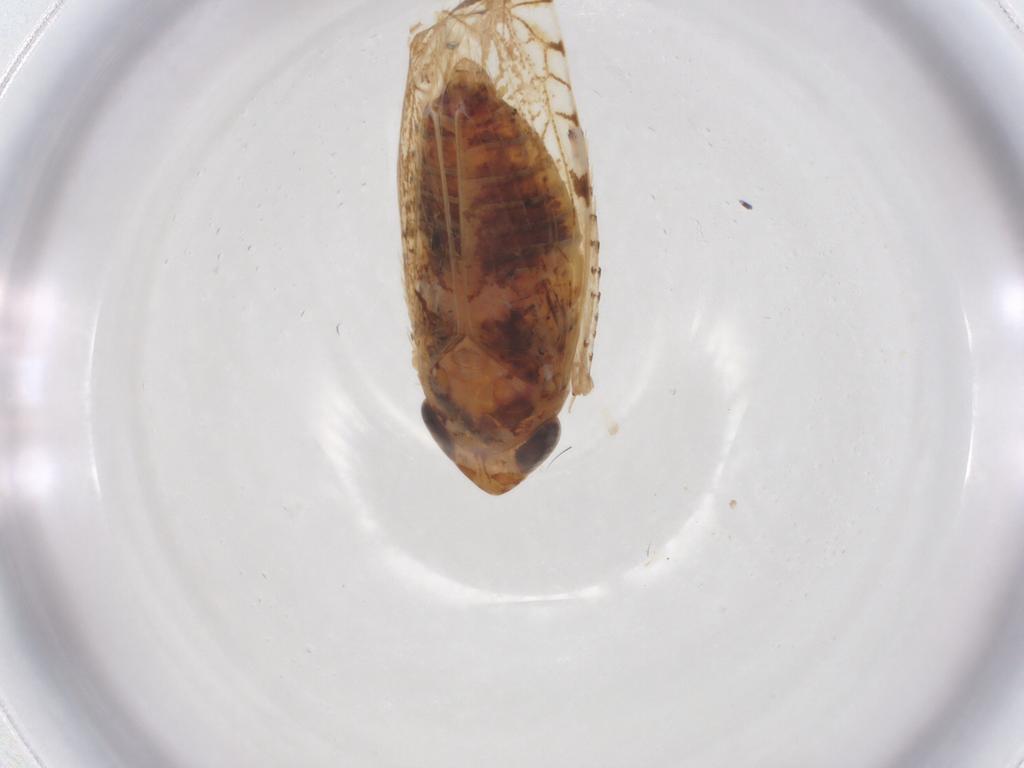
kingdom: Animalia
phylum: Arthropoda
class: Insecta
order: Hemiptera
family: Cicadellidae
